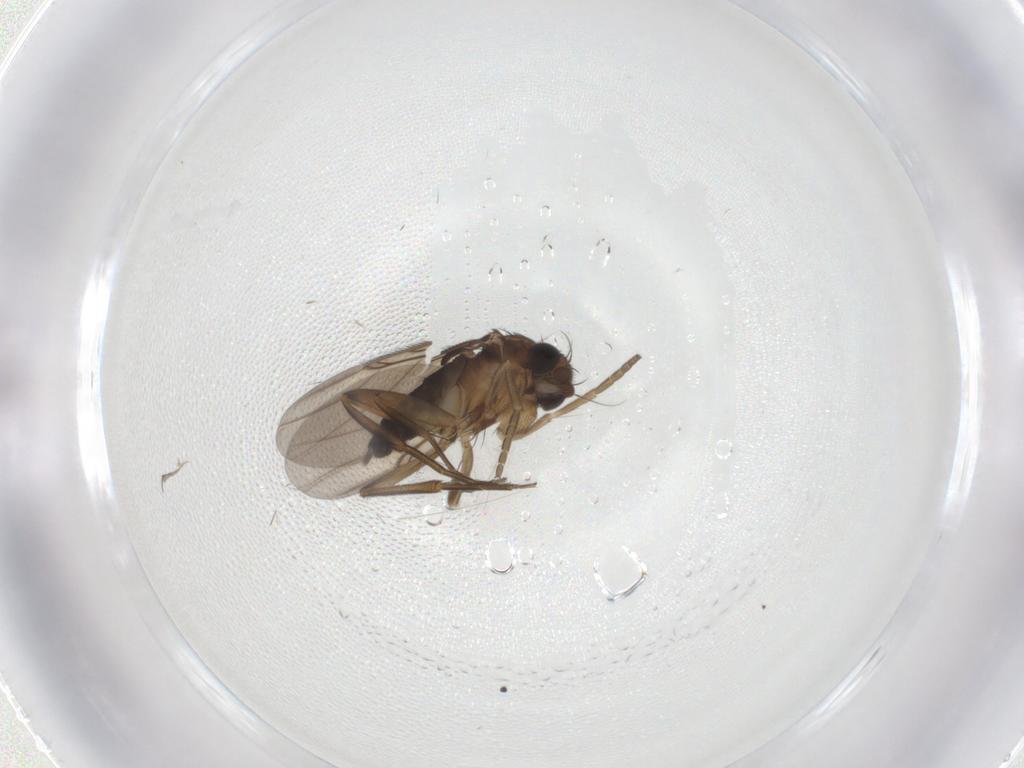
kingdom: Animalia
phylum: Arthropoda
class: Insecta
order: Diptera
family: Phoridae
